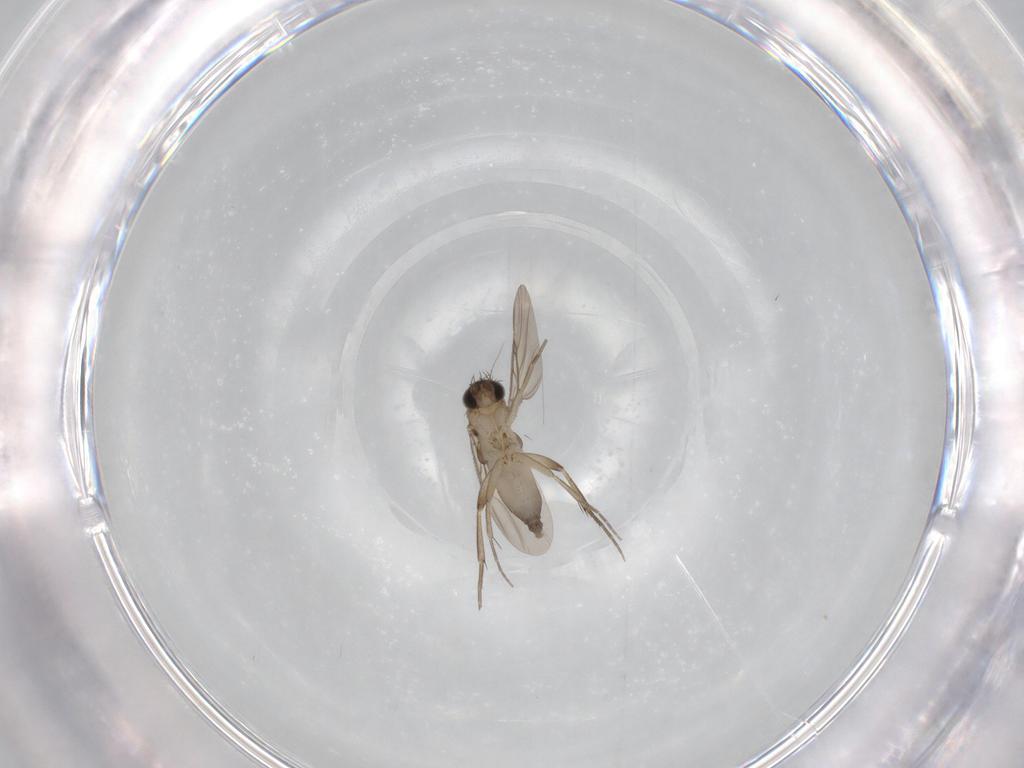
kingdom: Animalia
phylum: Arthropoda
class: Insecta
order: Diptera
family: Phoridae
